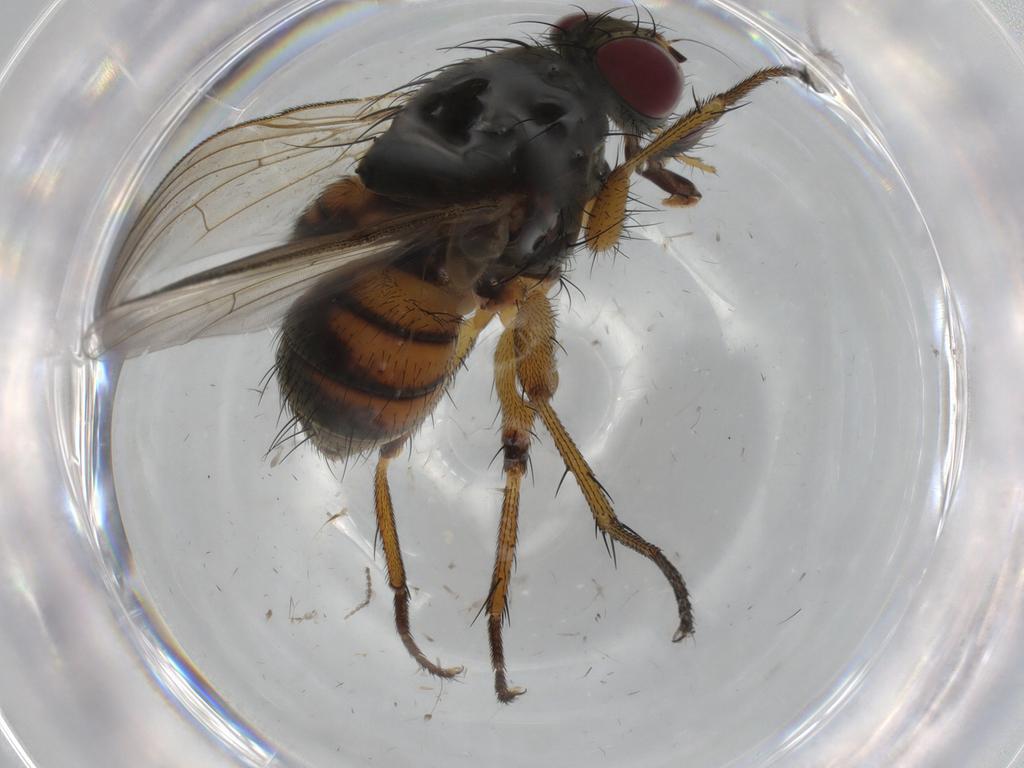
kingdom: Animalia
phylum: Arthropoda
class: Insecta
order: Diptera
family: Muscidae
